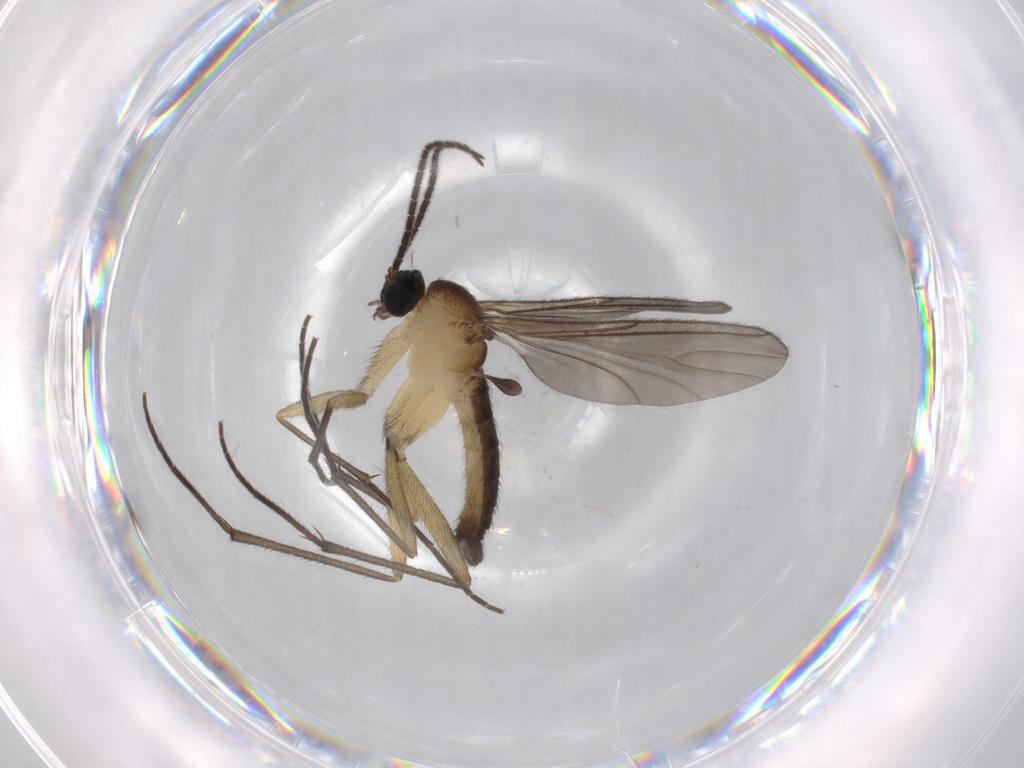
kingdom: Animalia
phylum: Arthropoda
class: Insecta
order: Diptera
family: Sciaridae
